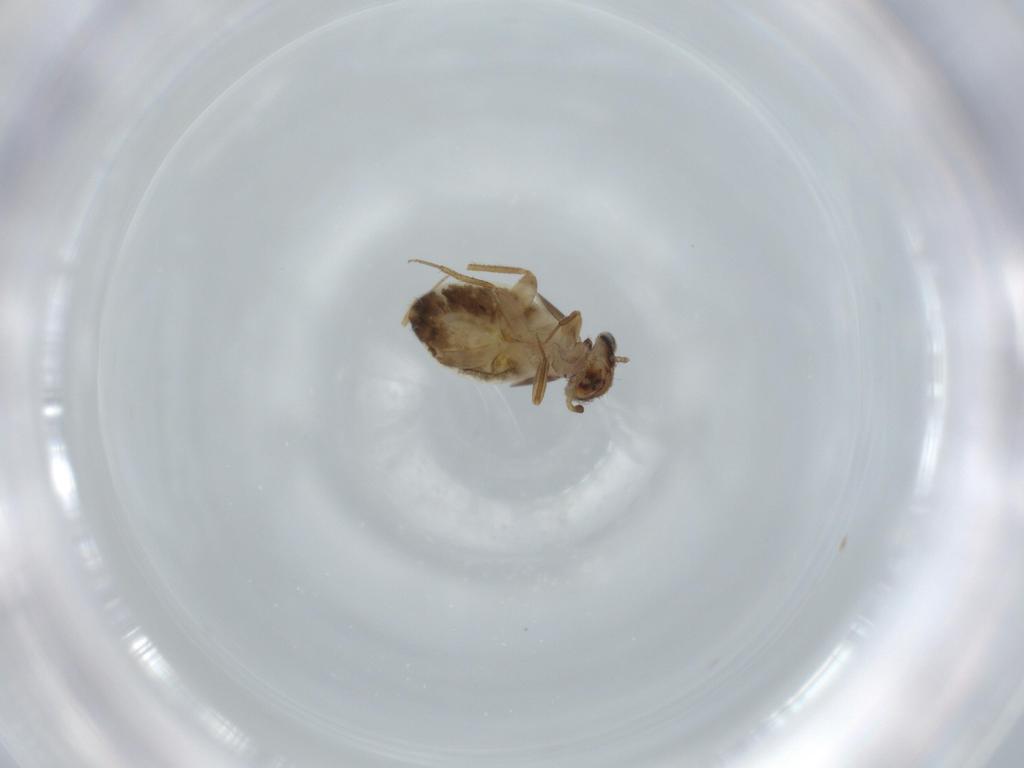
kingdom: Animalia
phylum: Arthropoda
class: Insecta
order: Psocodea
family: Lepidopsocidae
